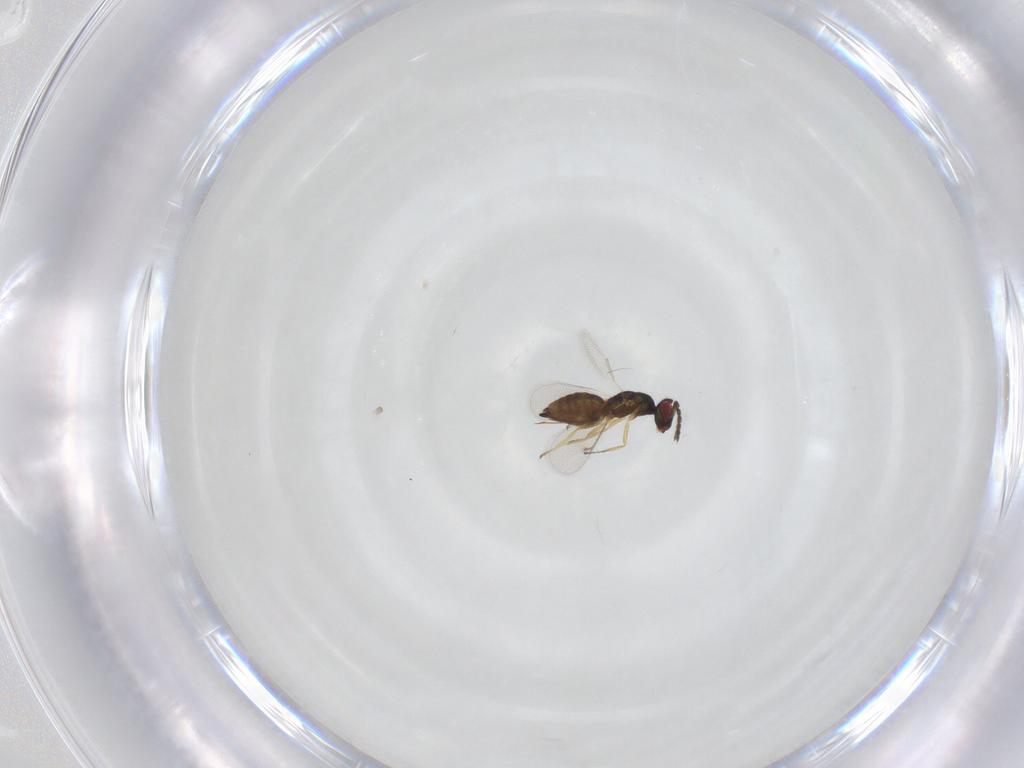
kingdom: Animalia
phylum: Arthropoda
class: Insecta
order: Hymenoptera
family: Eulophidae
